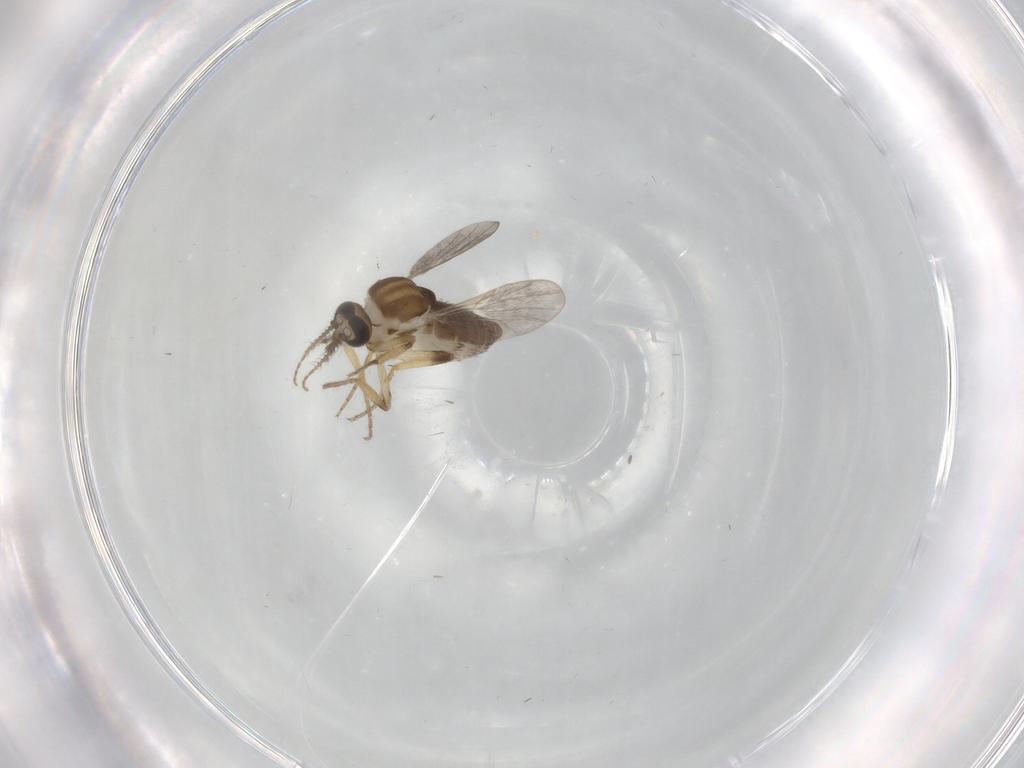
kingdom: Animalia
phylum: Arthropoda
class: Insecta
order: Diptera
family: Ceratopogonidae
